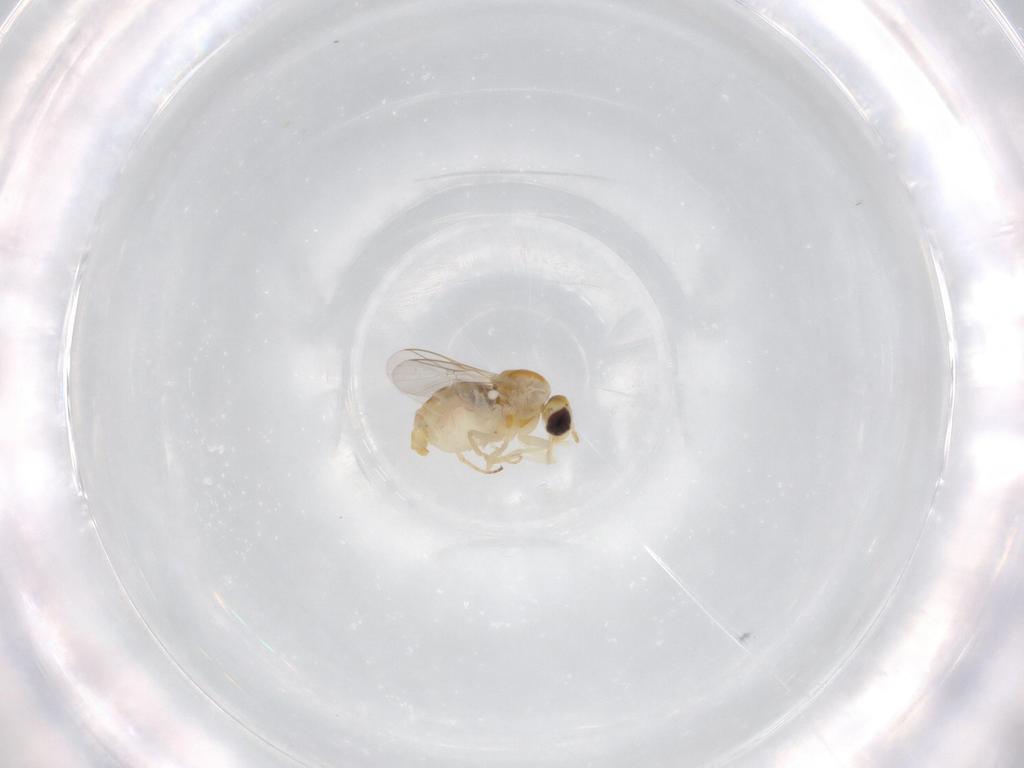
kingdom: Animalia
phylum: Arthropoda
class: Insecta
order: Diptera
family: Mythicomyiidae
